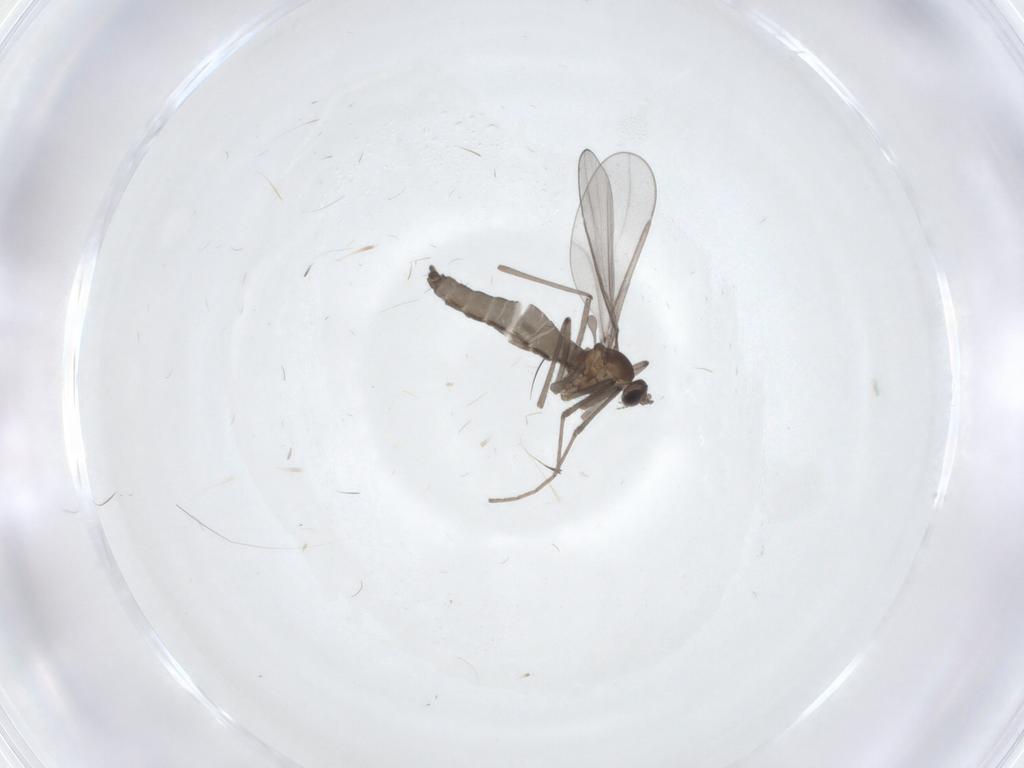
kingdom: Animalia
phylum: Arthropoda
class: Insecta
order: Diptera
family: Cecidomyiidae
